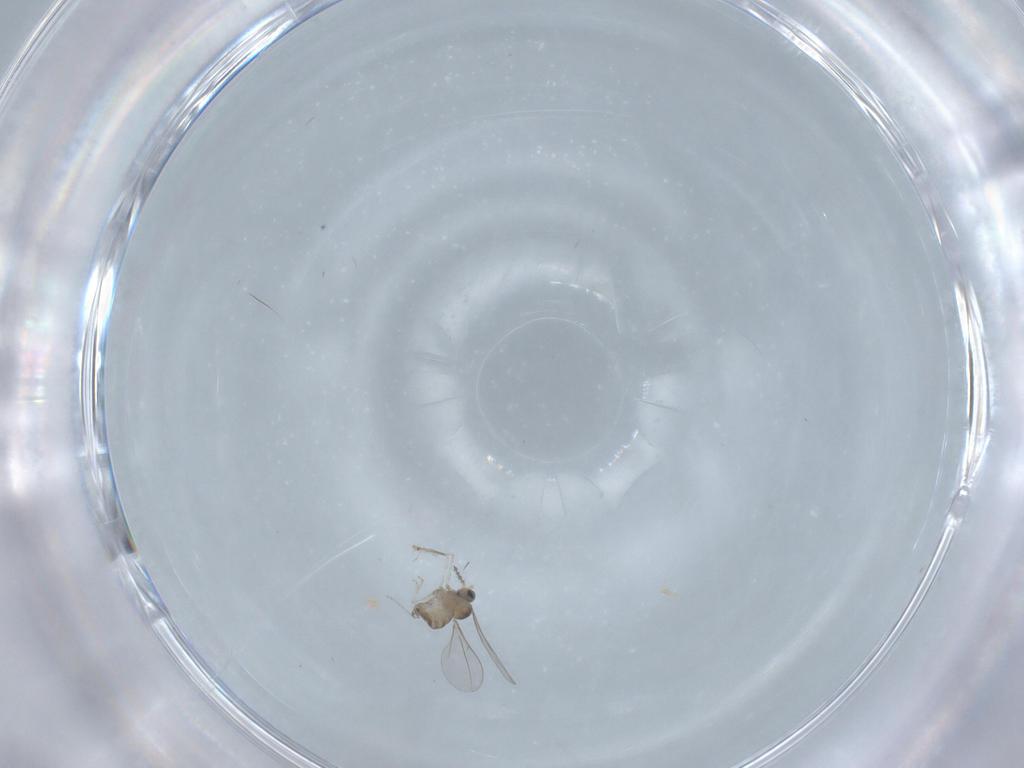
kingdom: Animalia
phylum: Arthropoda
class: Insecta
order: Diptera
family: Cecidomyiidae
